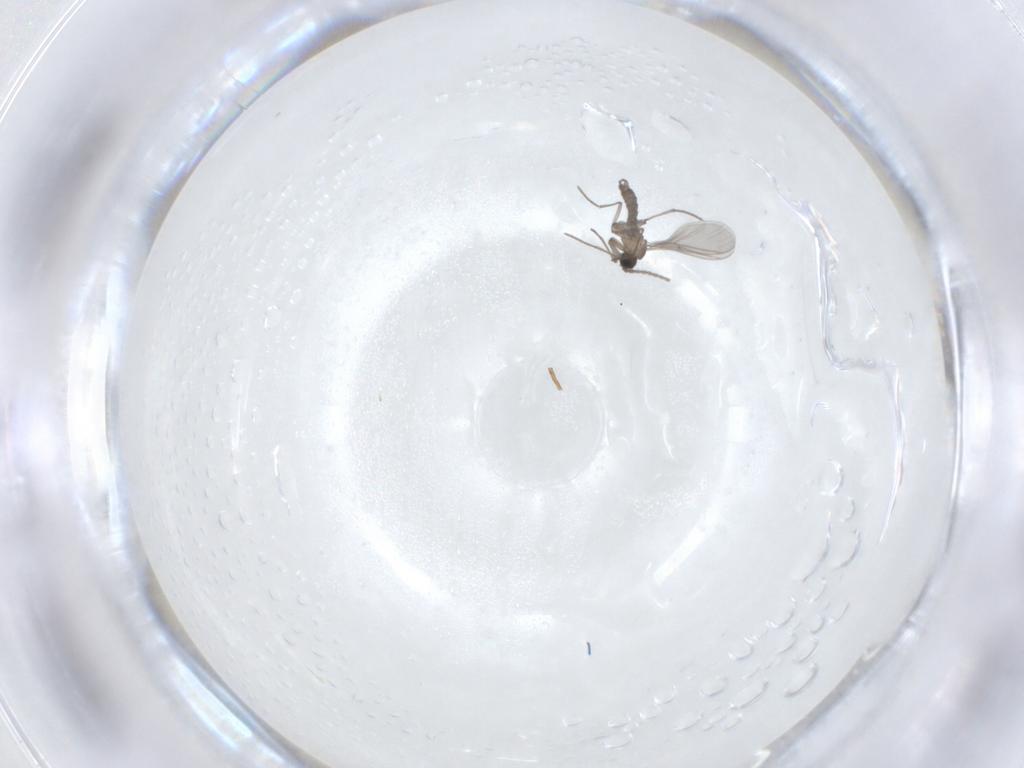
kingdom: Animalia
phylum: Arthropoda
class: Insecta
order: Diptera
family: Sciaridae
